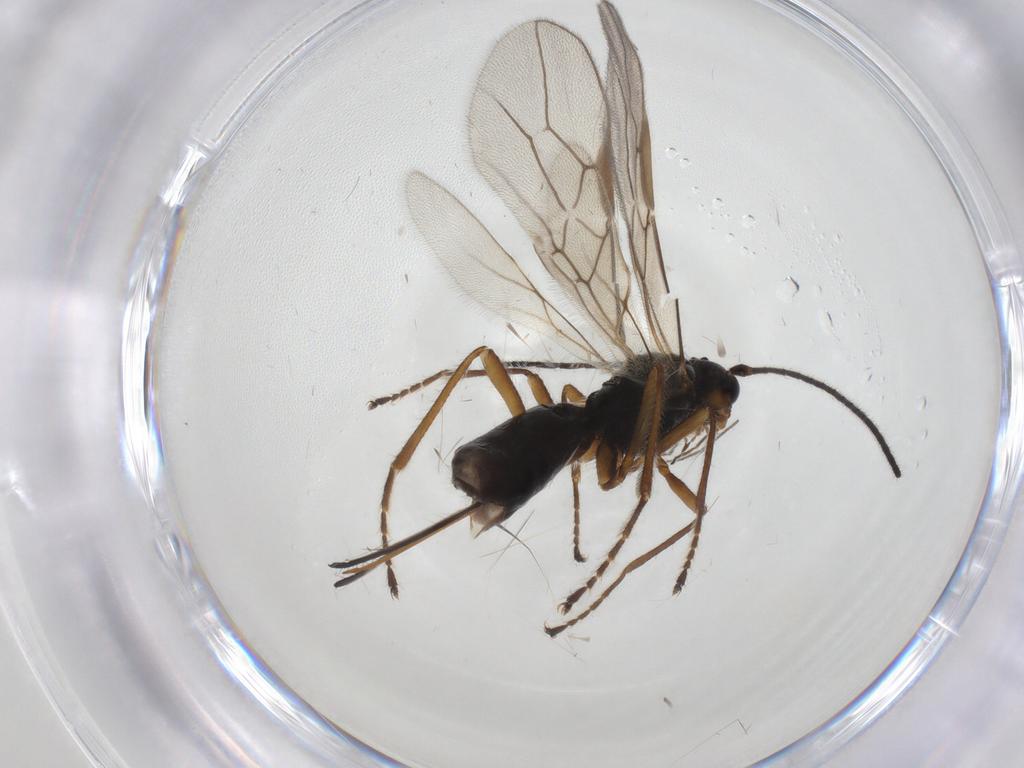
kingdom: Animalia
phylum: Arthropoda
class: Insecta
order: Hymenoptera
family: Braconidae
